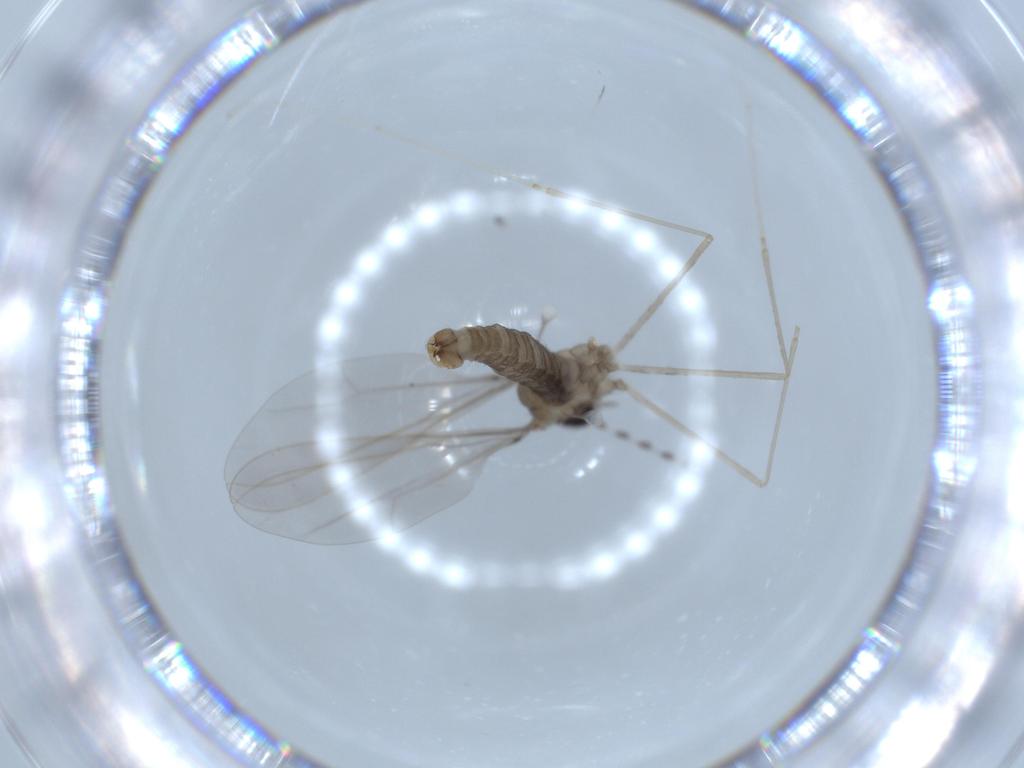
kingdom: Animalia
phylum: Arthropoda
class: Insecta
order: Diptera
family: Cecidomyiidae
